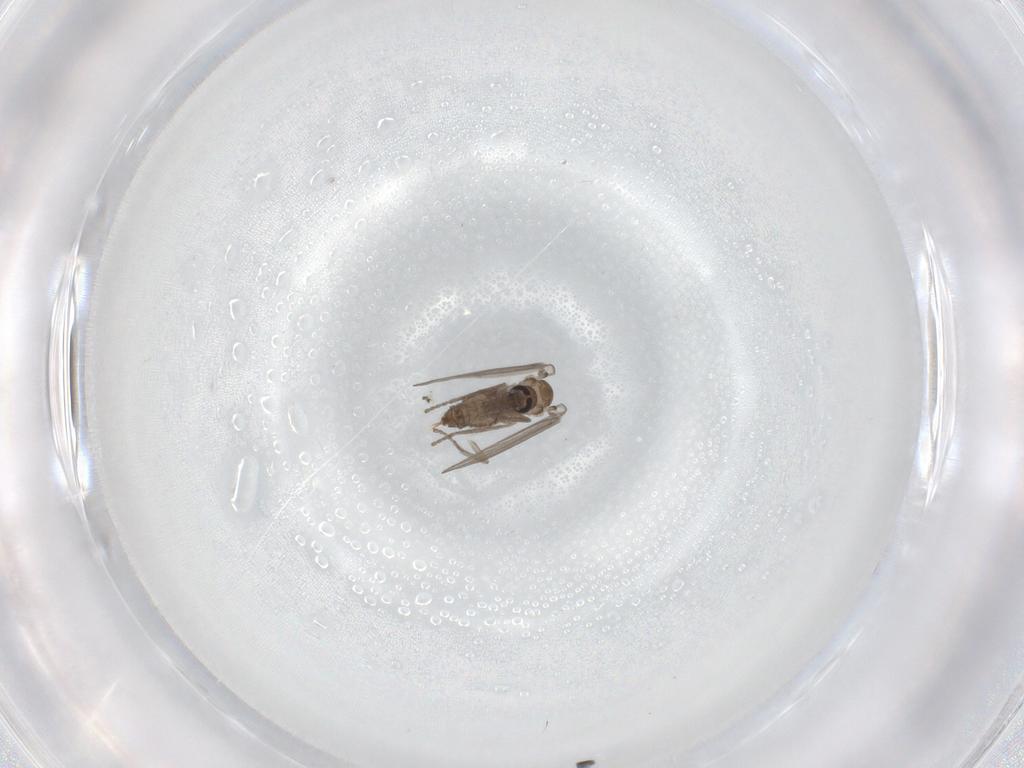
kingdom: Animalia
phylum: Arthropoda
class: Insecta
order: Diptera
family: Psychodidae
